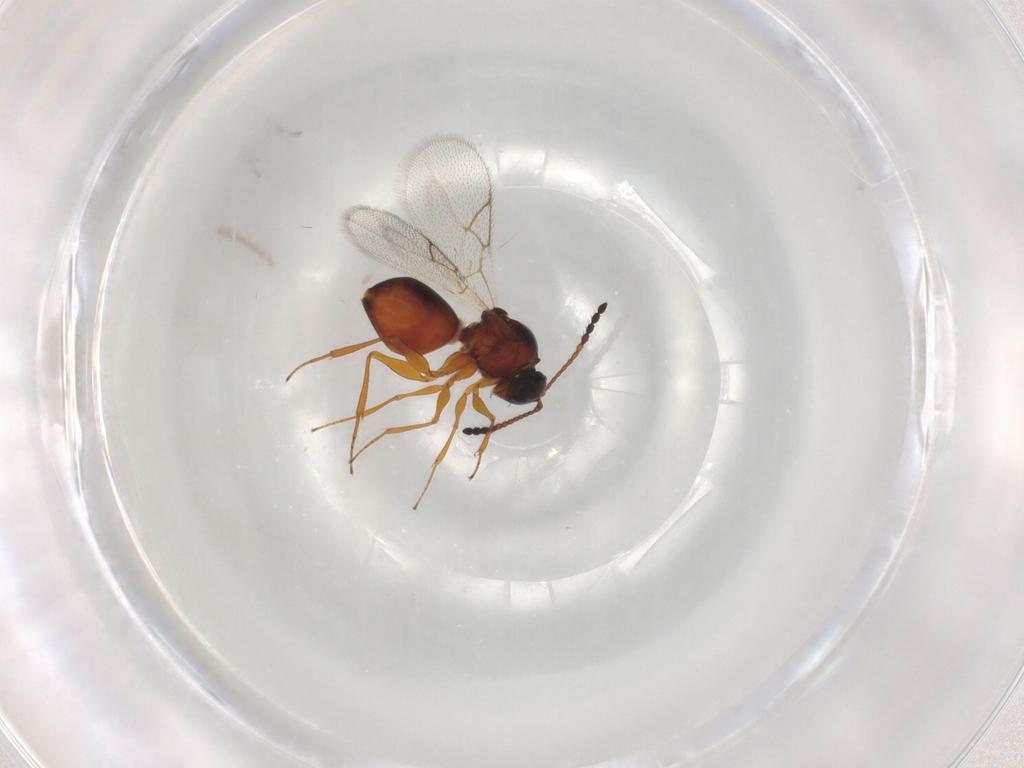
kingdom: Animalia
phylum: Arthropoda
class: Insecta
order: Hymenoptera
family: Figitidae
